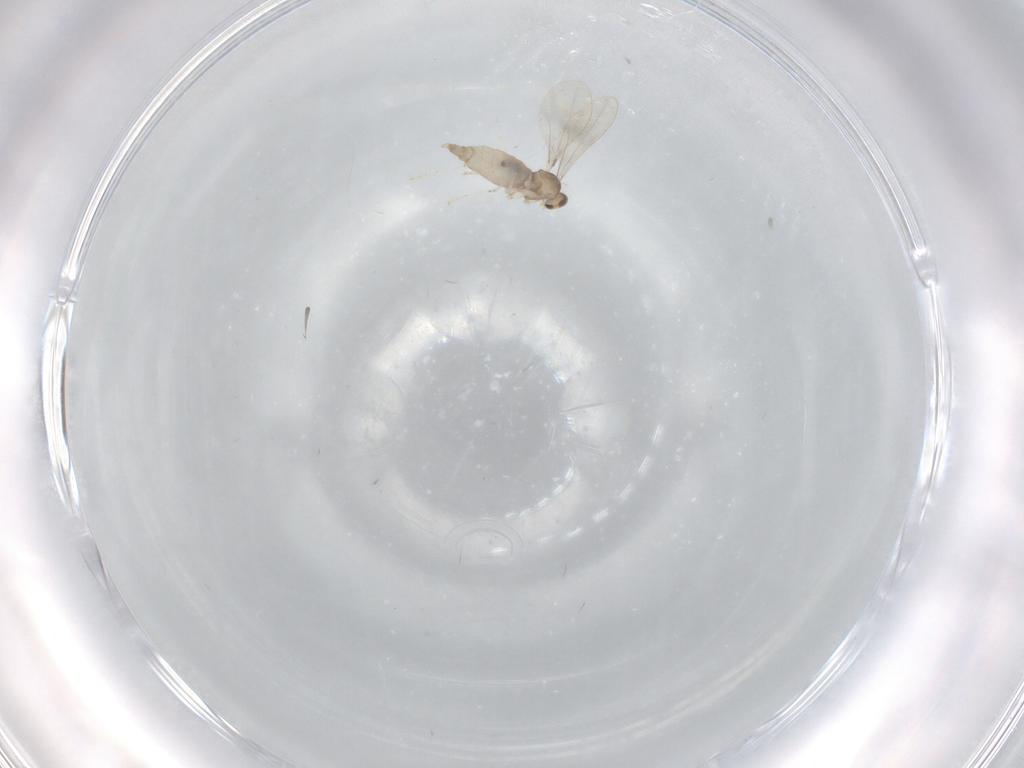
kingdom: Animalia
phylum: Arthropoda
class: Insecta
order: Diptera
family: Cecidomyiidae
